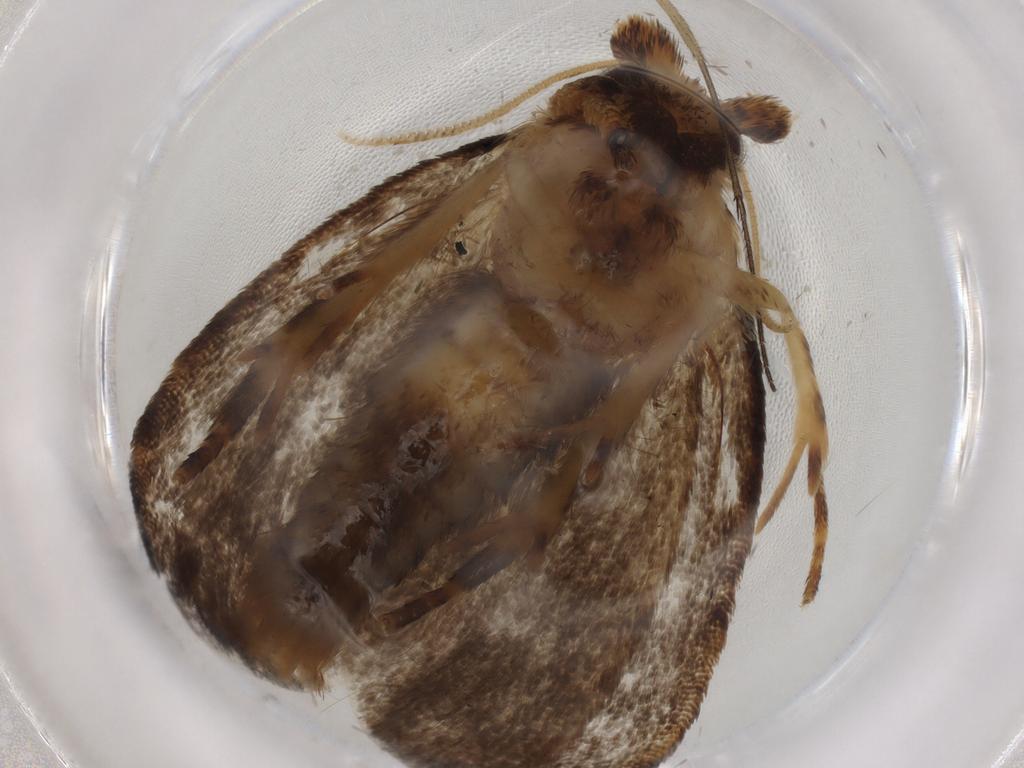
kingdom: Animalia
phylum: Arthropoda
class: Insecta
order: Lepidoptera
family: Tineidae
